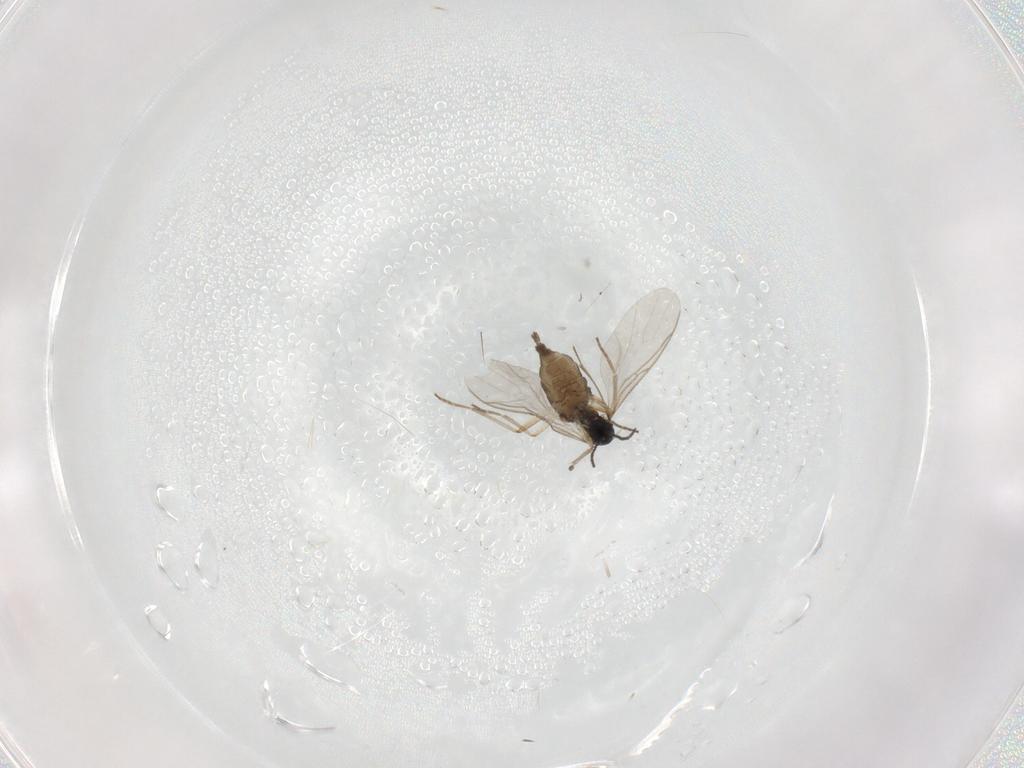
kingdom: Animalia
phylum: Arthropoda
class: Insecta
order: Diptera
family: Sciaridae
